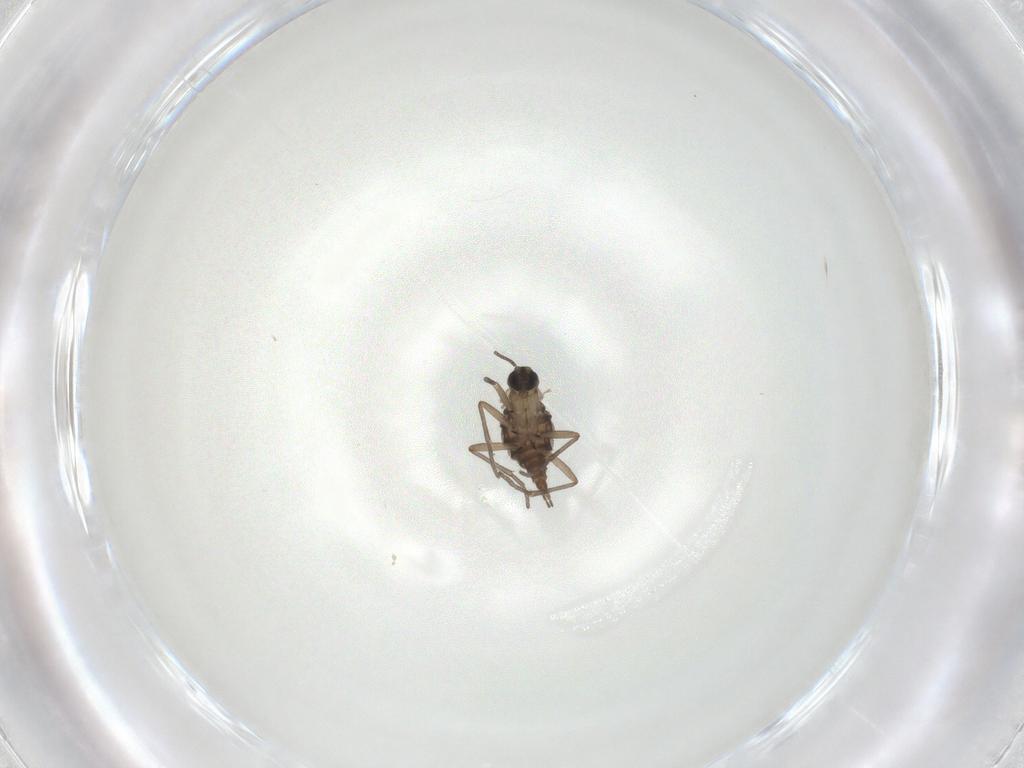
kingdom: Animalia
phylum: Arthropoda
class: Insecta
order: Diptera
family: Sciaridae
